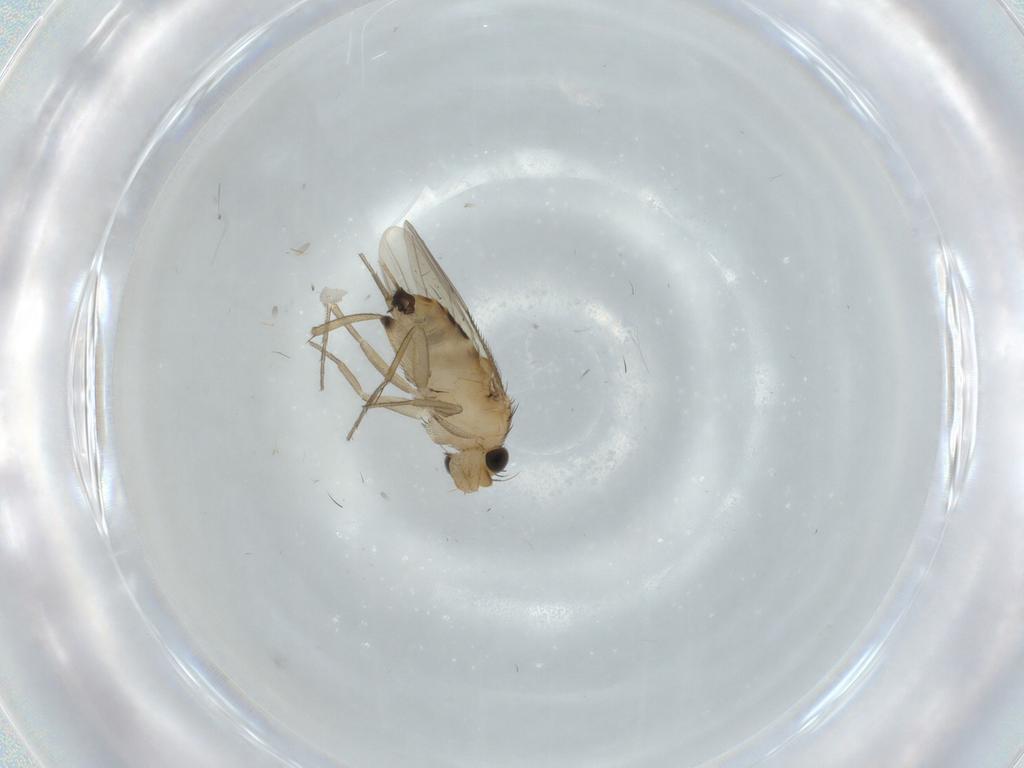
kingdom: Animalia
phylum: Arthropoda
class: Insecta
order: Diptera
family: Phoridae
